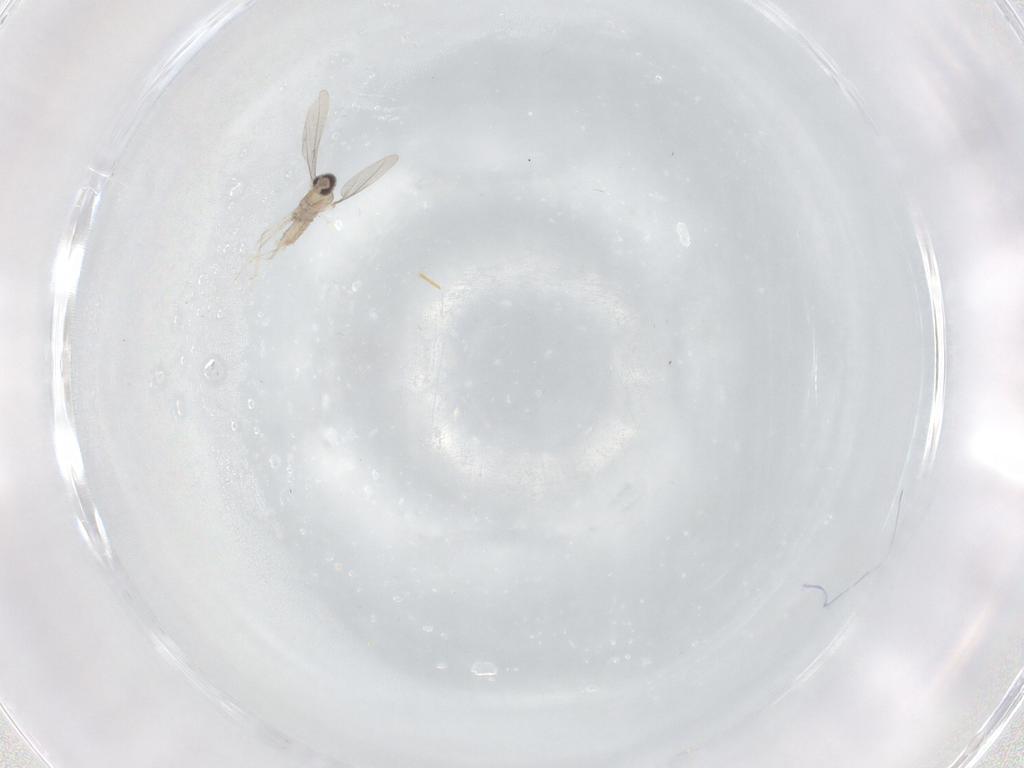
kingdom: Animalia
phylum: Arthropoda
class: Insecta
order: Diptera
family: Cecidomyiidae
